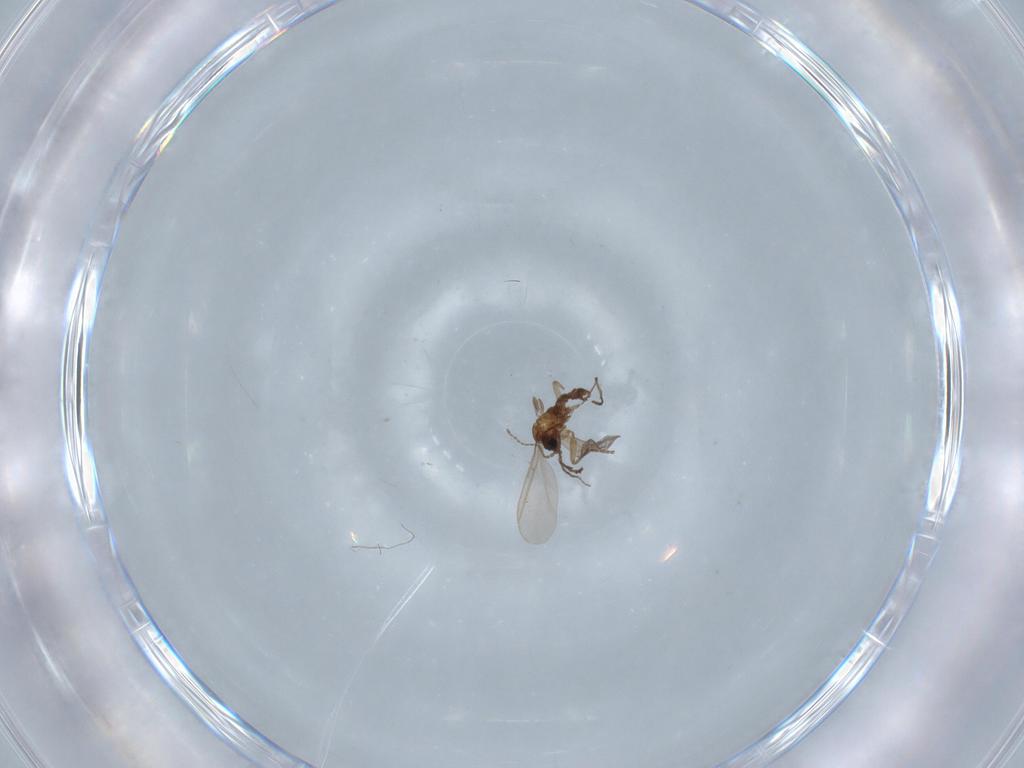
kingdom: Animalia
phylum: Arthropoda
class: Insecta
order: Diptera
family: Sciaridae
